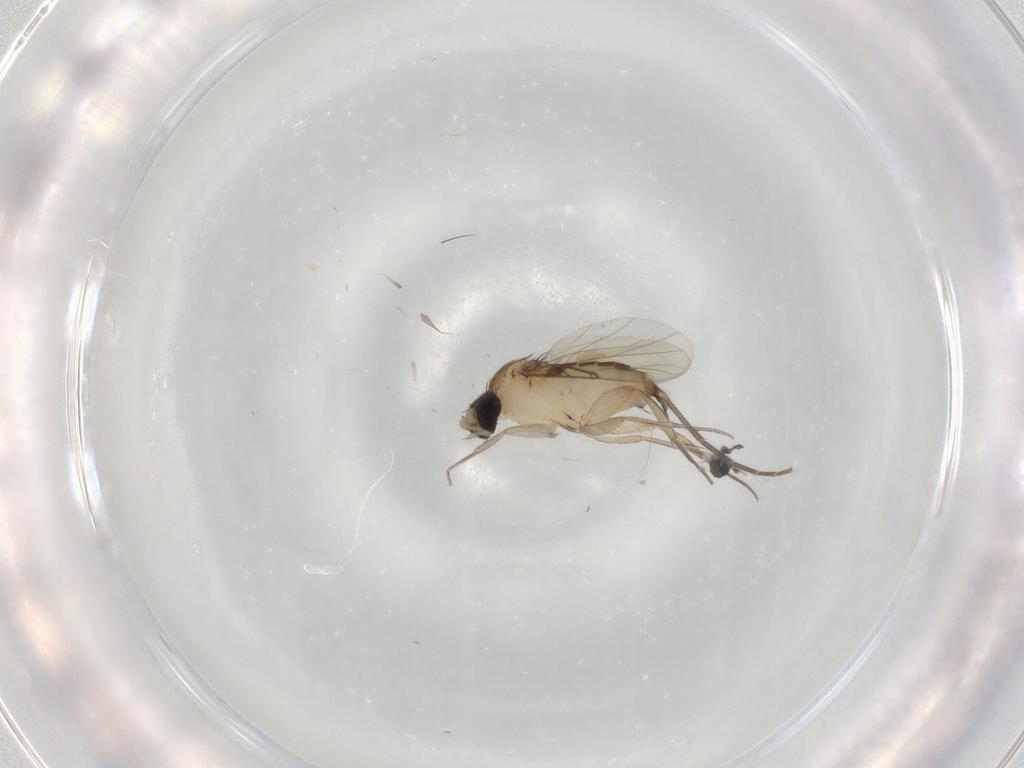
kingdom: Animalia
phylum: Arthropoda
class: Insecta
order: Diptera
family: Phoridae
